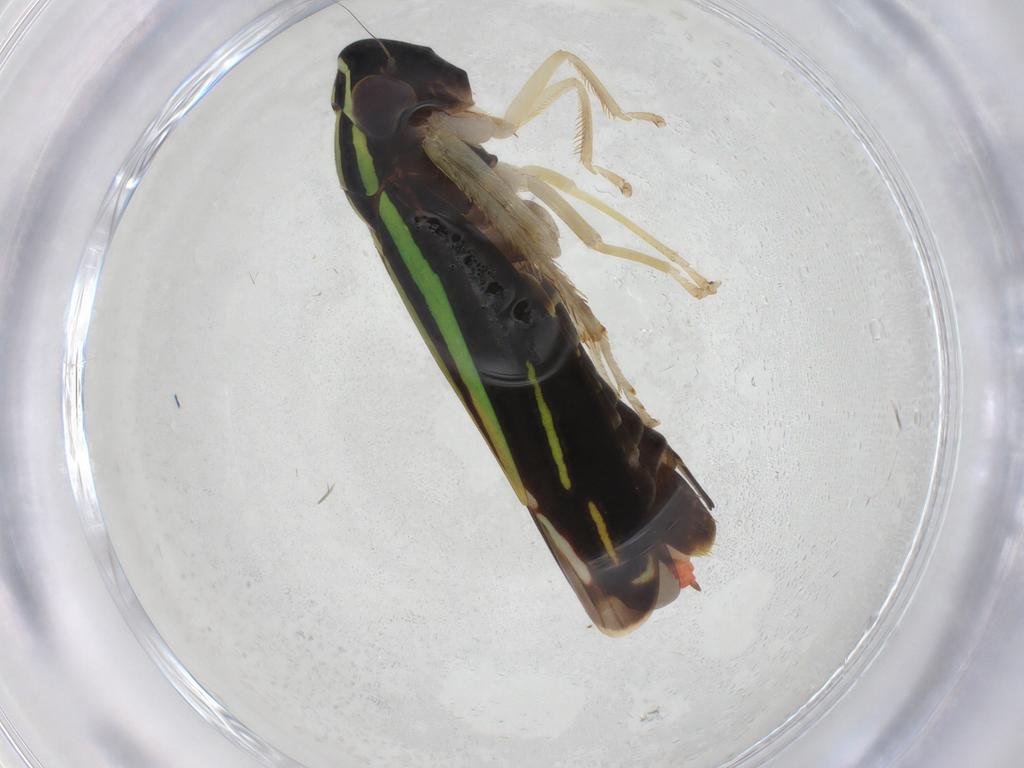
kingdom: Animalia
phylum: Arthropoda
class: Insecta
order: Hemiptera
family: Cicadellidae
